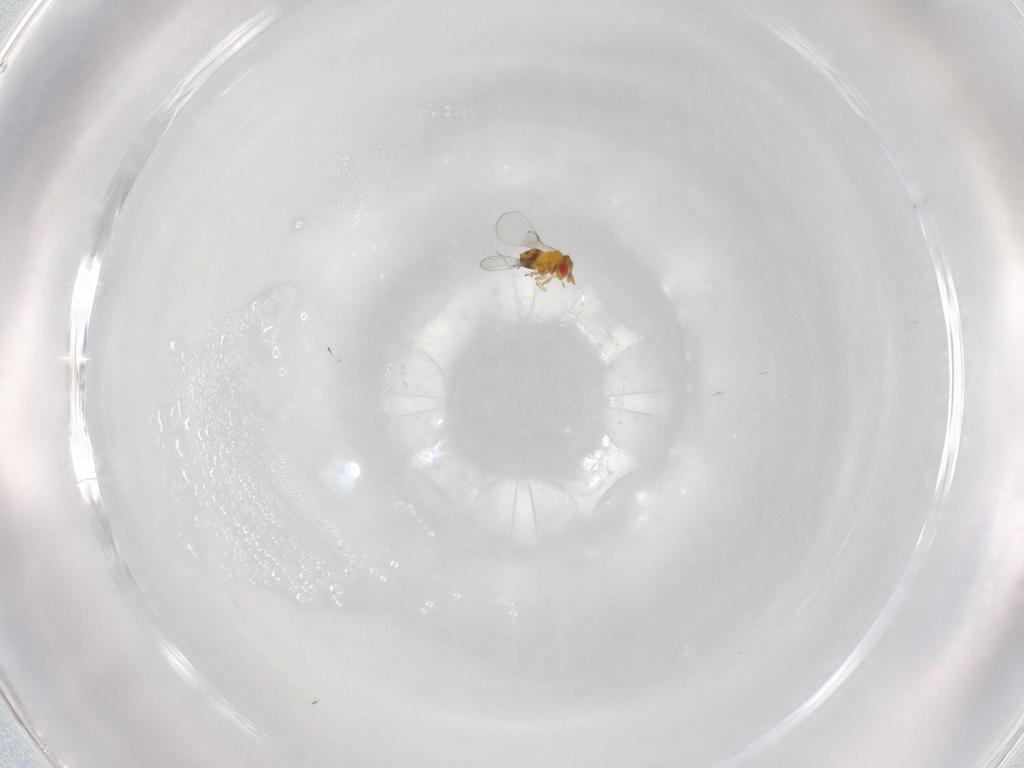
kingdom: Animalia
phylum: Arthropoda
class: Insecta
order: Hymenoptera
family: Trichogrammatidae
